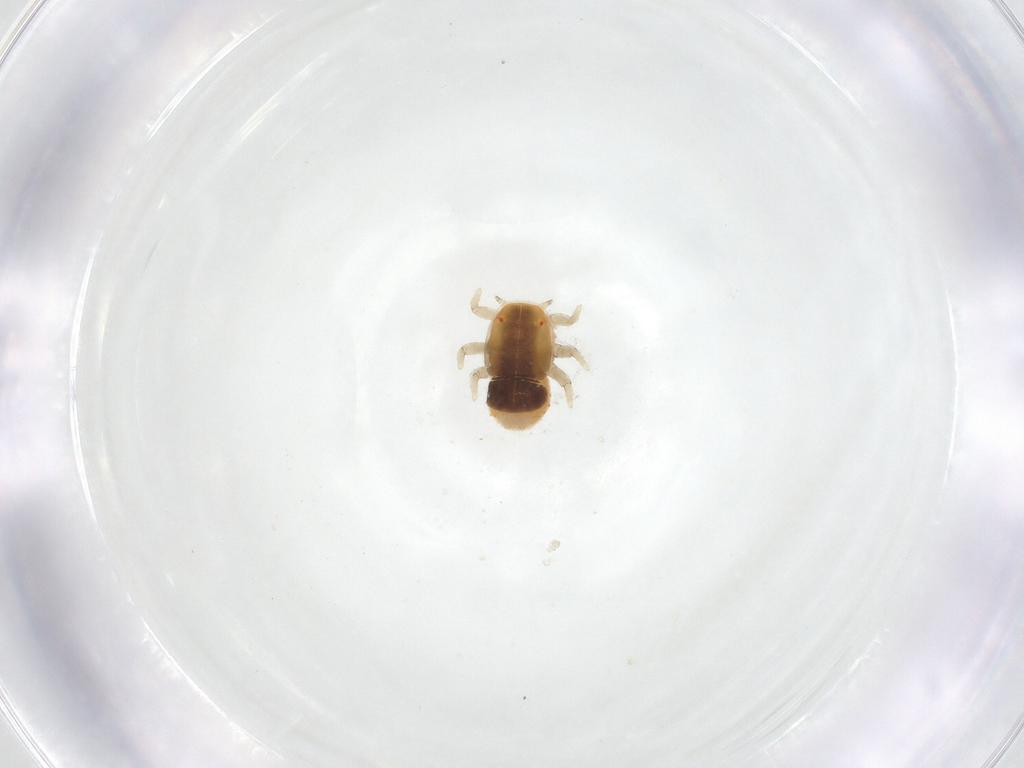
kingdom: Animalia
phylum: Arthropoda
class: Insecta
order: Hemiptera
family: Triozidae
